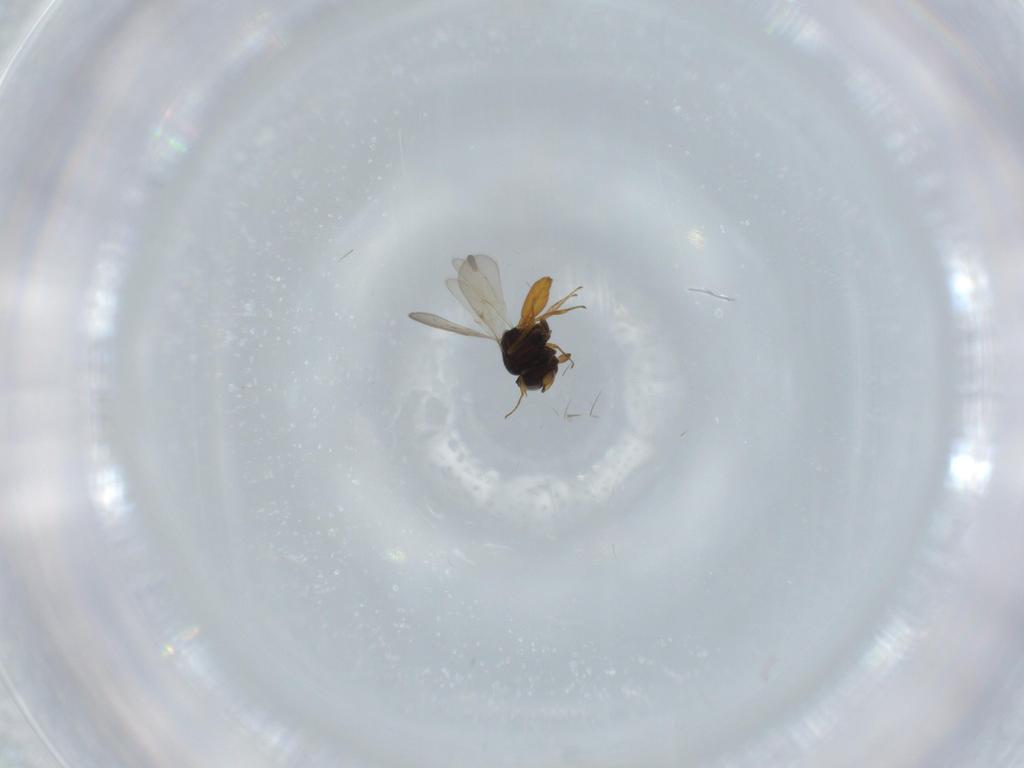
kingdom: Animalia
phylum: Arthropoda
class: Insecta
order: Hymenoptera
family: Scelionidae
